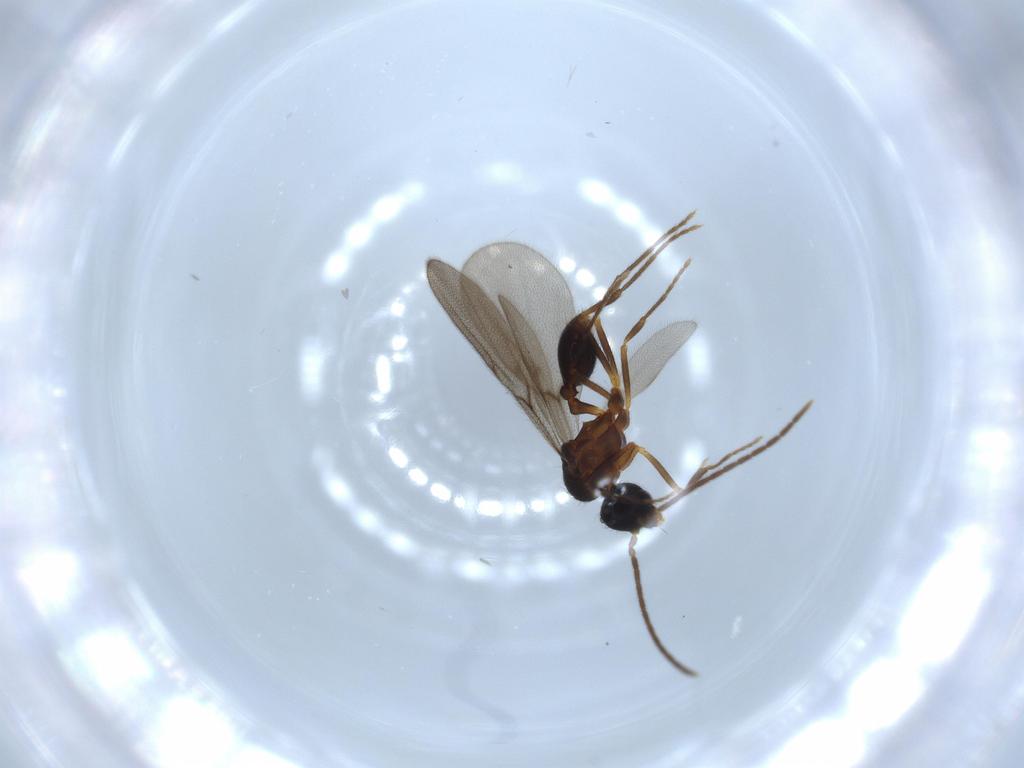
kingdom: Animalia
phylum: Arthropoda
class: Insecta
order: Hymenoptera
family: Formicidae
